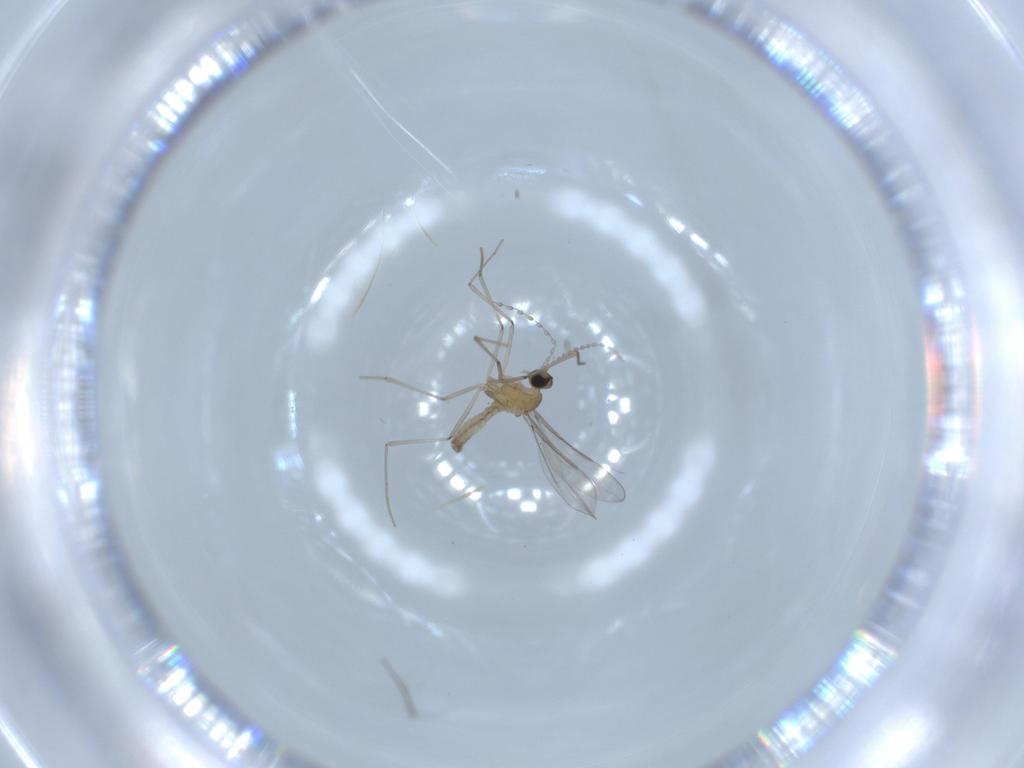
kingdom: Animalia
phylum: Arthropoda
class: Insecta
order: Diptera
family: Chironomidae
